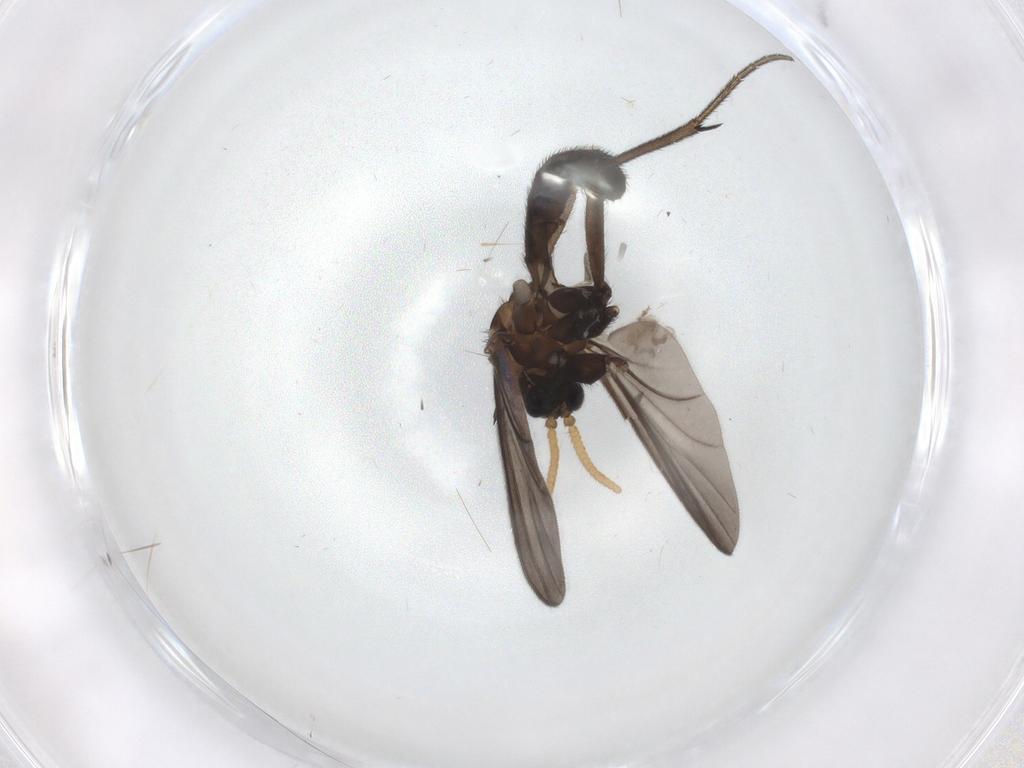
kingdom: Animalia
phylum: Arthropoda
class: Insecta
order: Diptera
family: Mycetophilidae
